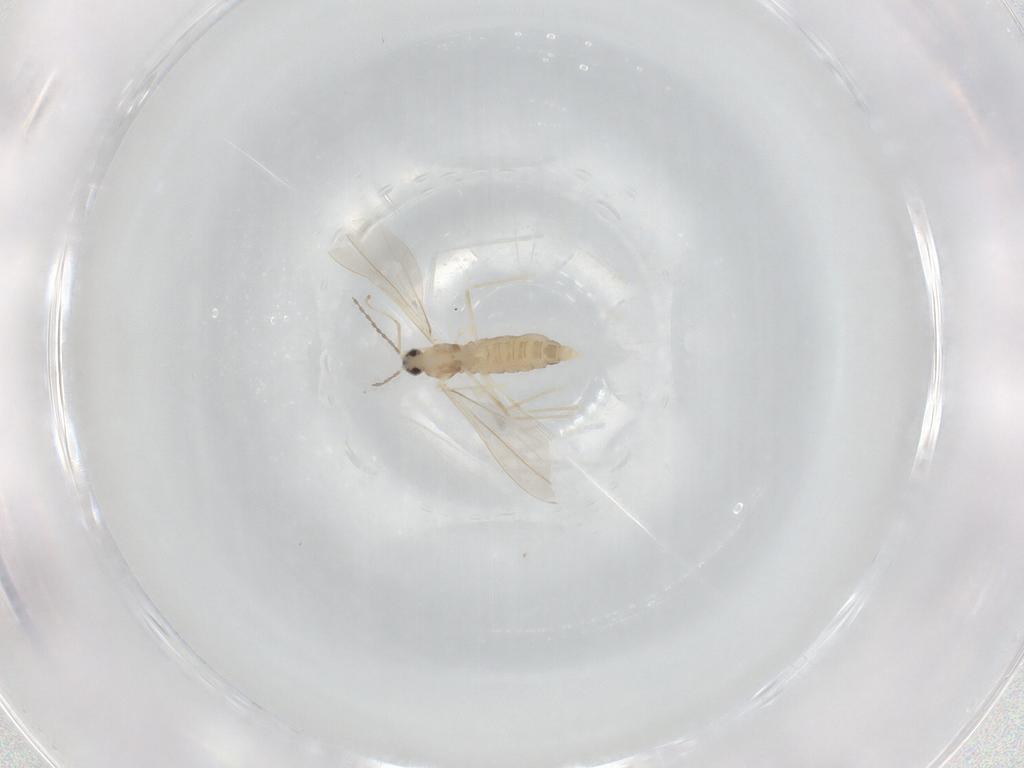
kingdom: Animalia
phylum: Arthropoda
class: Insecta
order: Diptera
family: Cecidomyiidae
